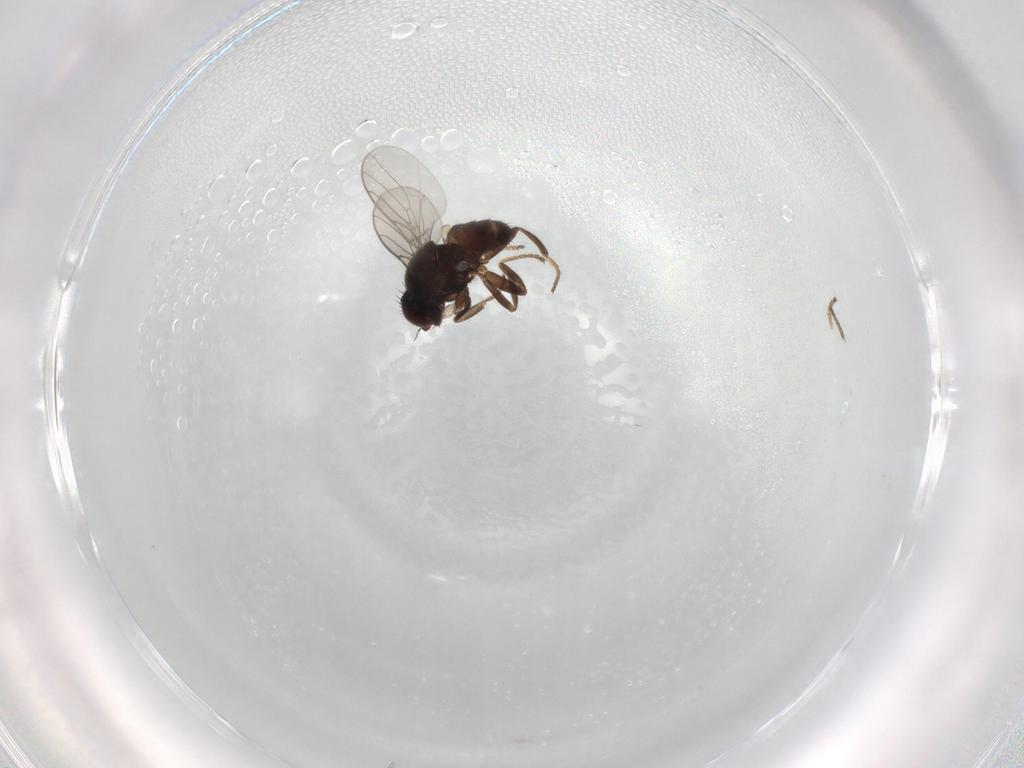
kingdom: Animalia
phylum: Arthropoda
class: Insecta
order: Diptera
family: Chloropidae
